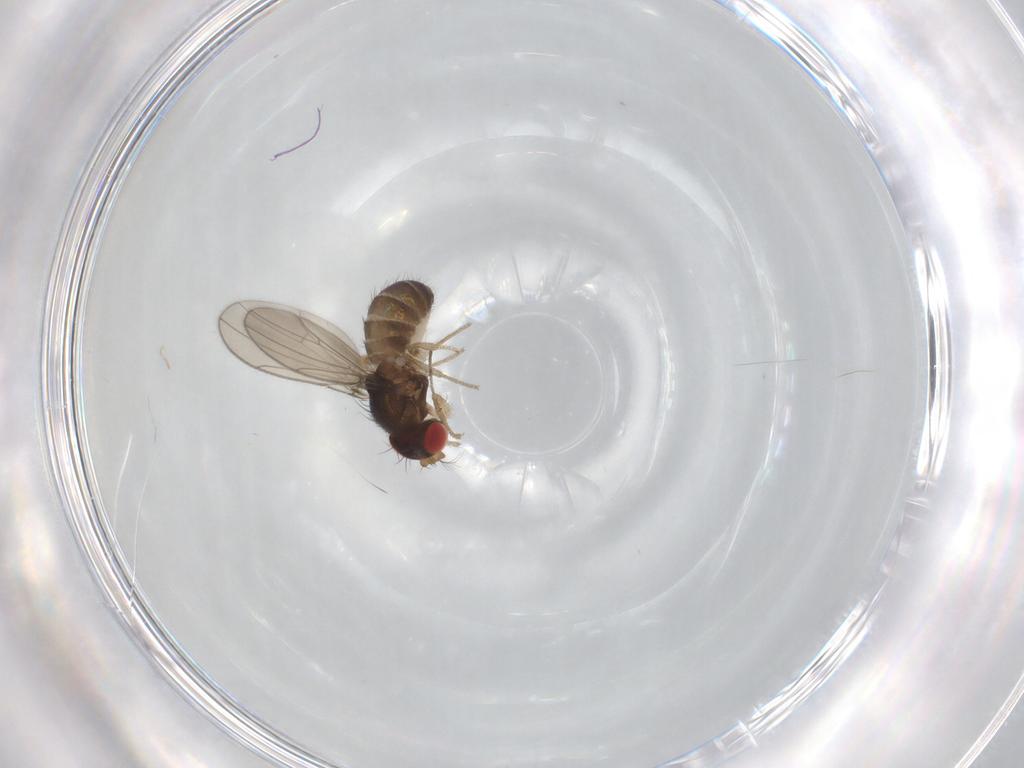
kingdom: Animalia
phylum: Arthropoda
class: Insecta
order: Diptera
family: Drosophilidae
